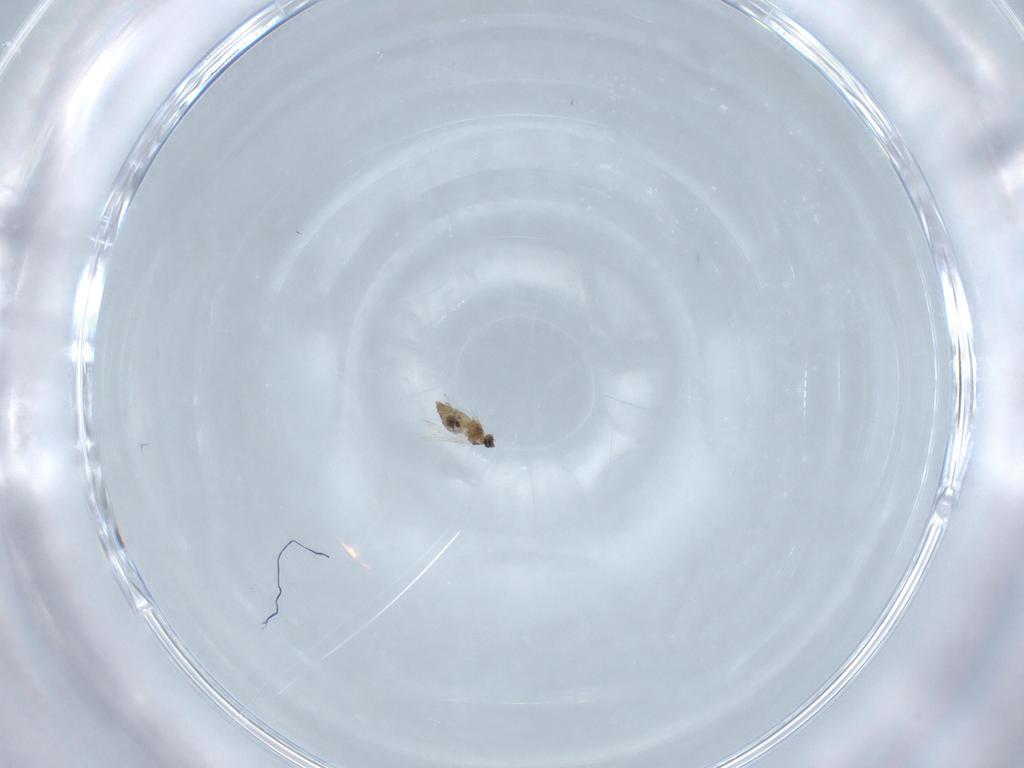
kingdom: Animalia
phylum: Arthropoda
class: Insecta
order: Diptera
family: Cecidomyiidae
